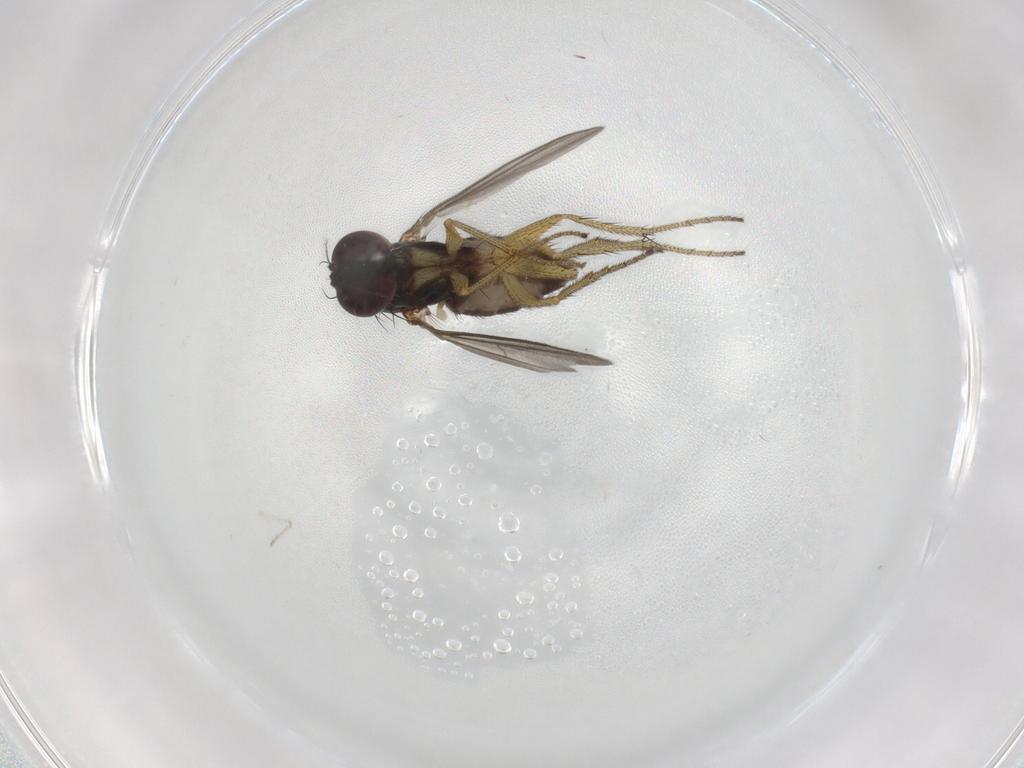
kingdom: Animalia
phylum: Arthropoda
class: Insecta
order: Diptera
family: Dolichopodidae
